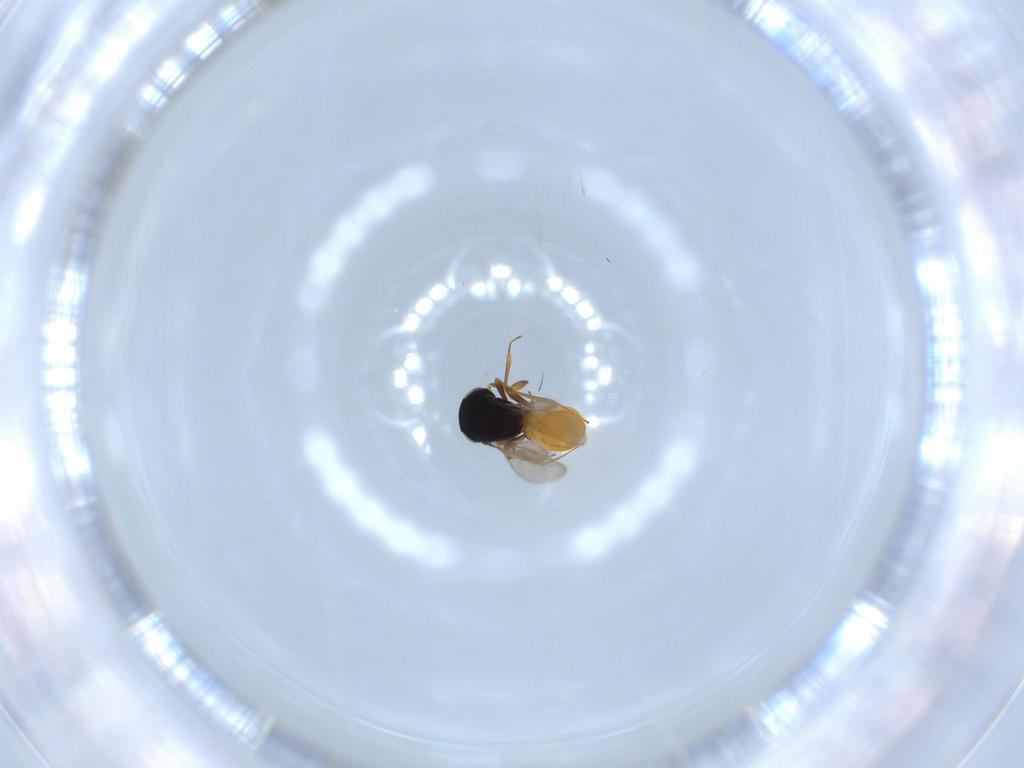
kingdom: Animalia
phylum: Arthropoda
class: Insecta
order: Hymenoptera
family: Scelionidae
